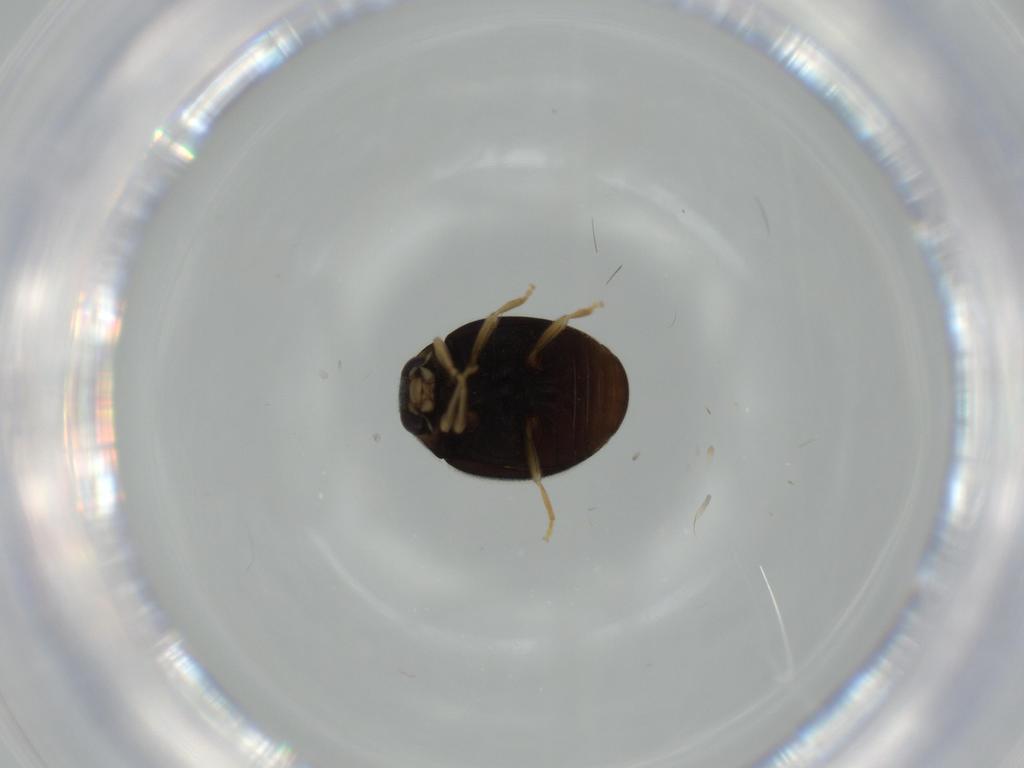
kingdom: Animalia
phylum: Arthropoda
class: Insecta
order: Coleoptera
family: Coccinellidae
